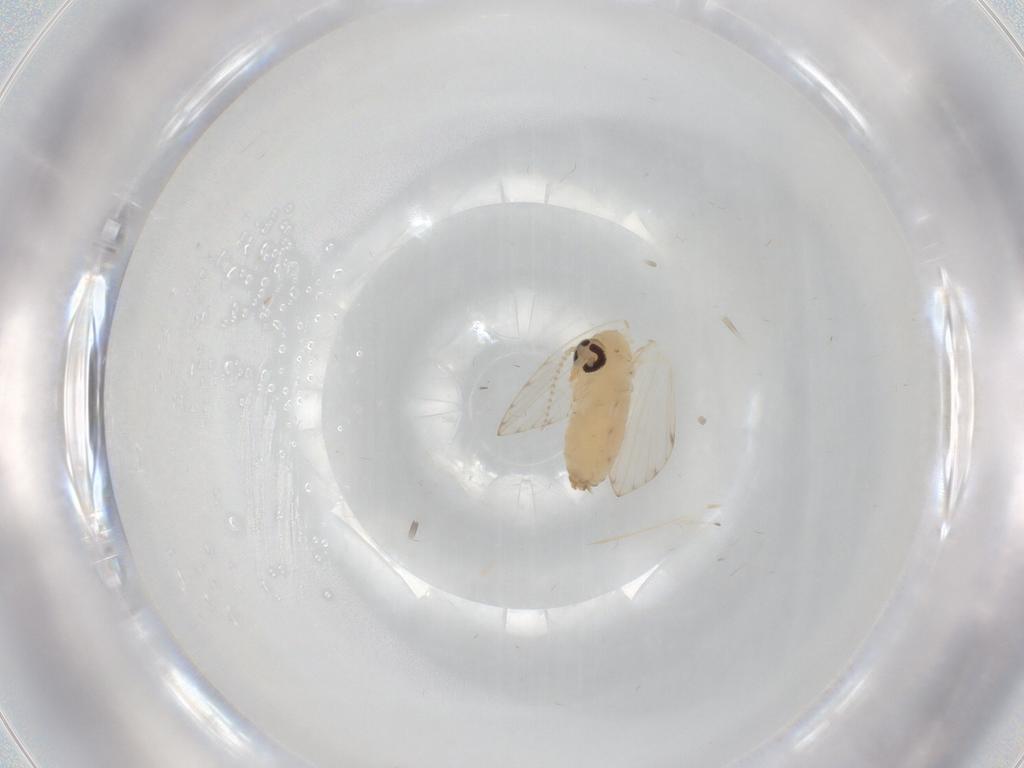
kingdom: Animalia
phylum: Arthropoda
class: Insecta
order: Diptera
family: Psychodidae
